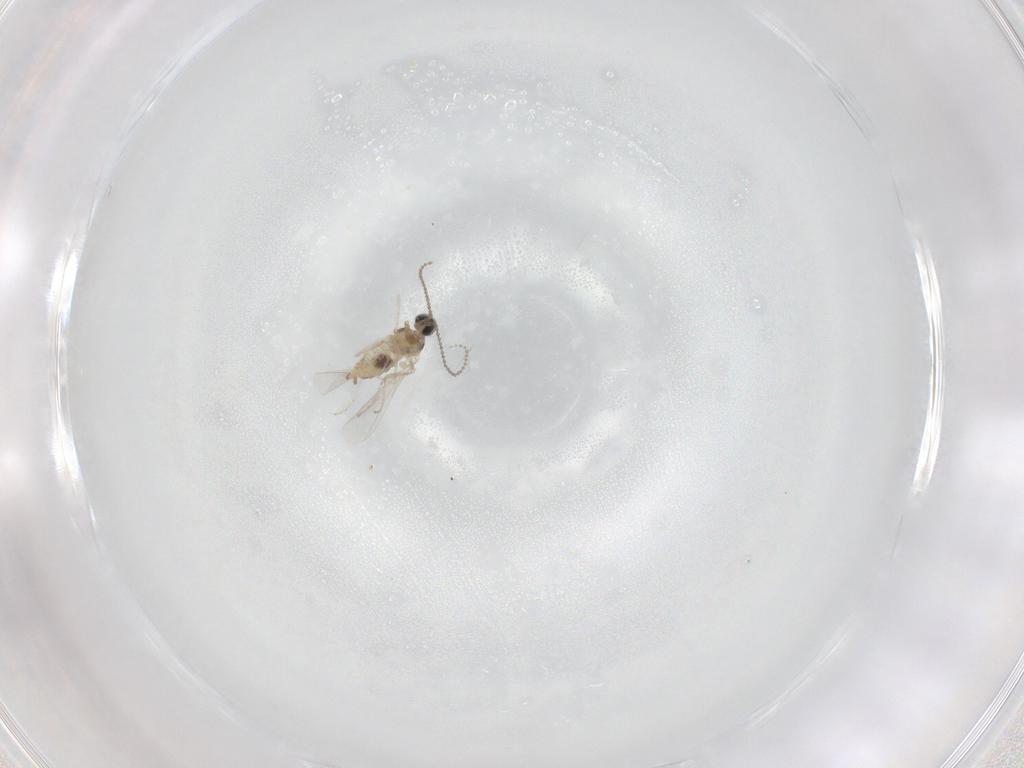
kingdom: Animalia
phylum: Arthropoda
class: Insecta
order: Diptera
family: Cecidomyiidae
